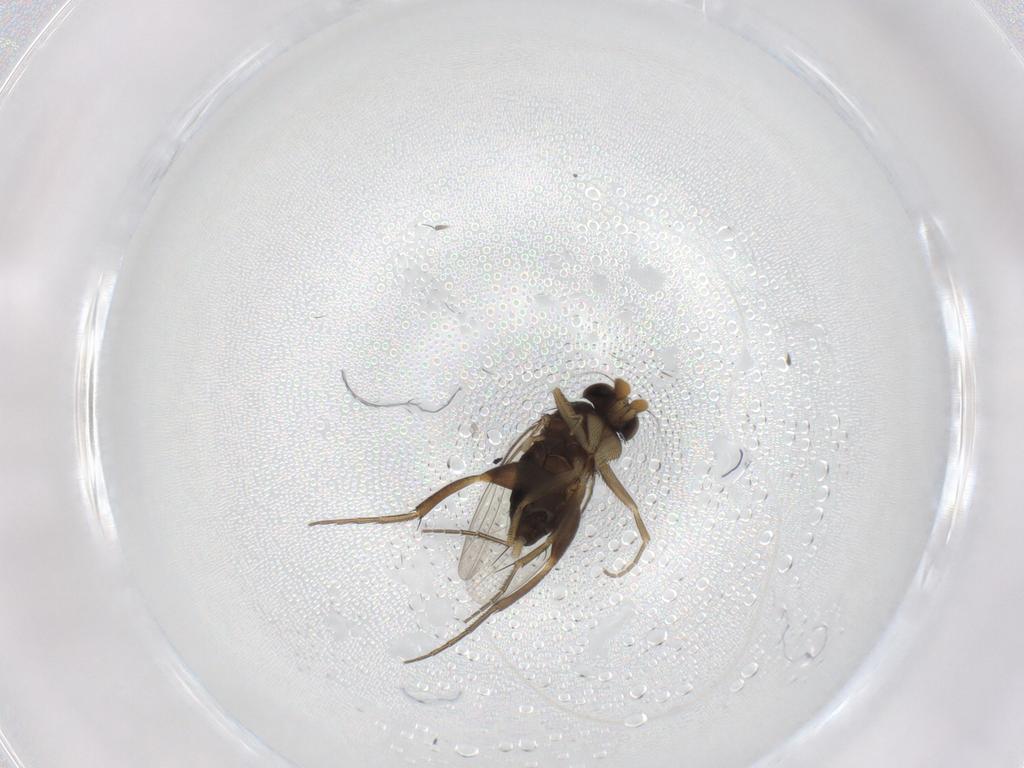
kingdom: Animalia
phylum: Arthropoda
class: Insecta
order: Diptera
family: Phoridae
